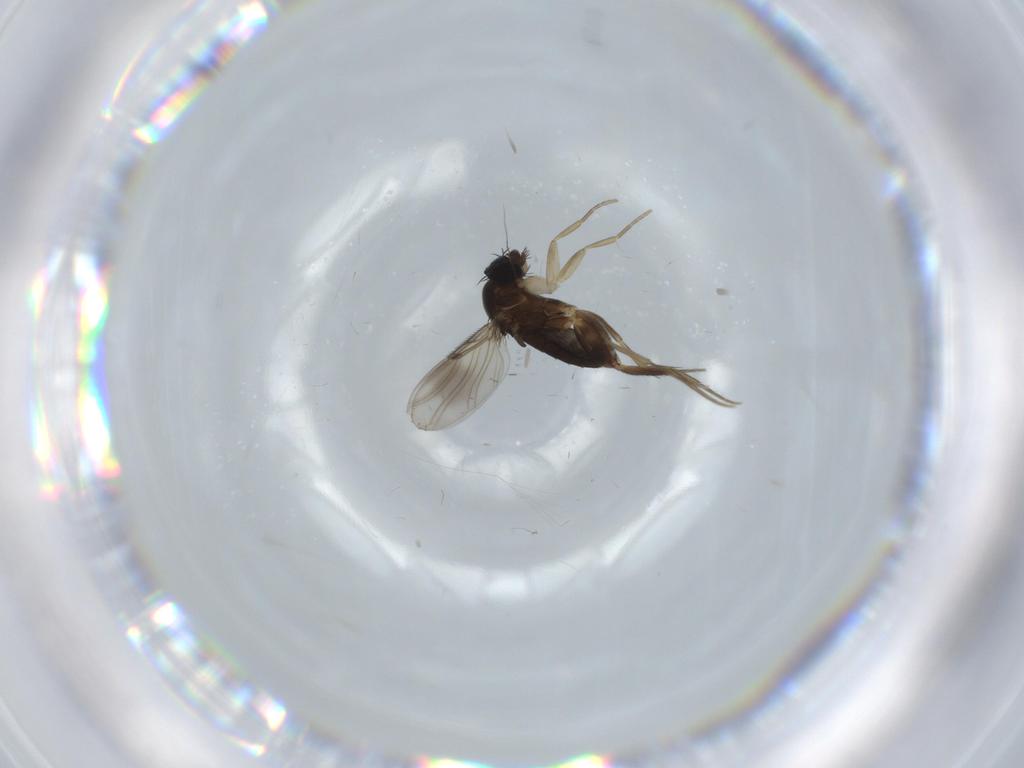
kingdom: Animalia
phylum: Arthropoda
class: Insecta
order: Diptera
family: Phoridae
